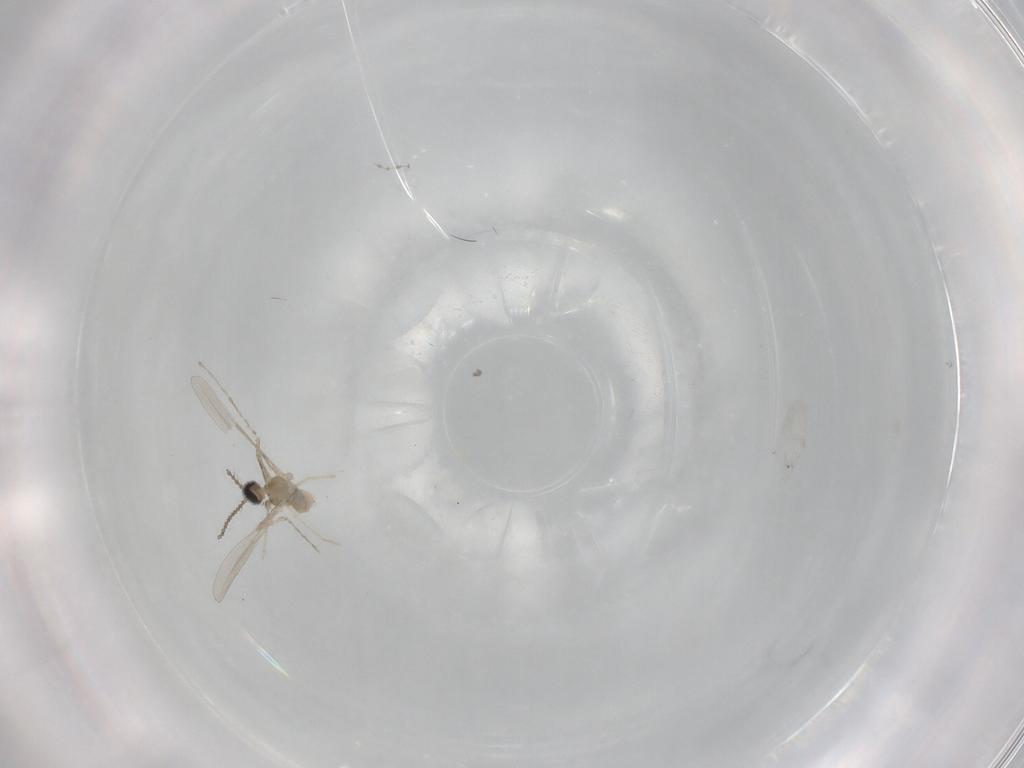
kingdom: Animalia
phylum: Arthropoda
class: Insecta
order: Diptera
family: Cecidomyiidae
